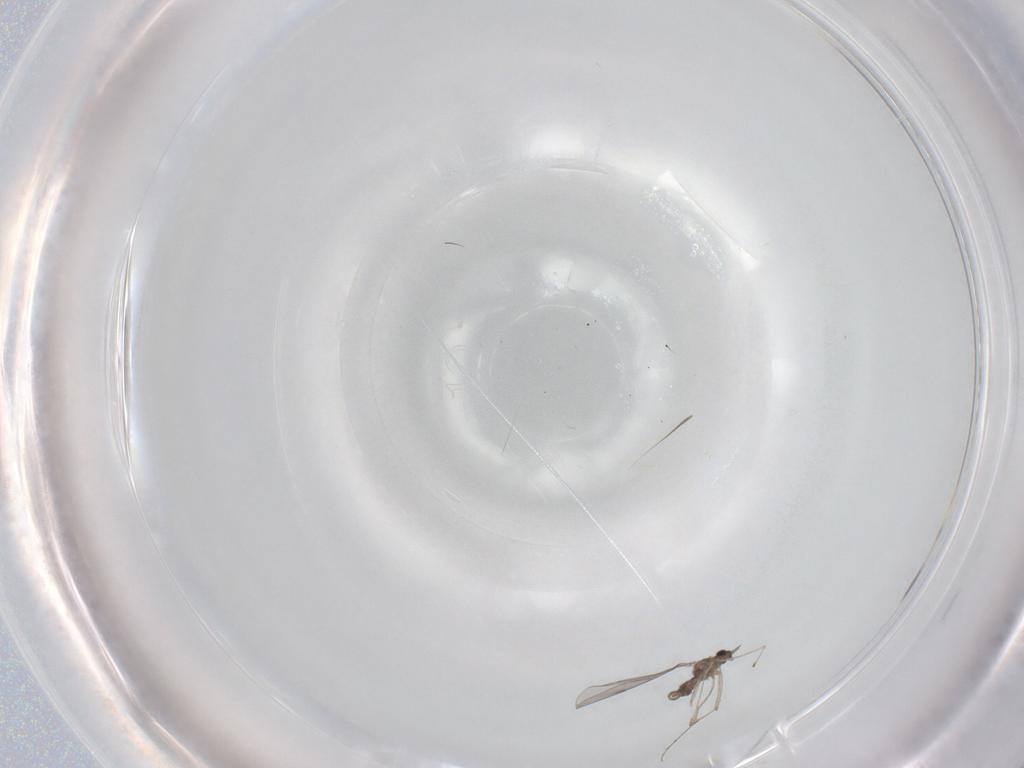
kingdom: Animalia
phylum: Arthropoda
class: Insecta
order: Diptera
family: Cecidomyiidae
